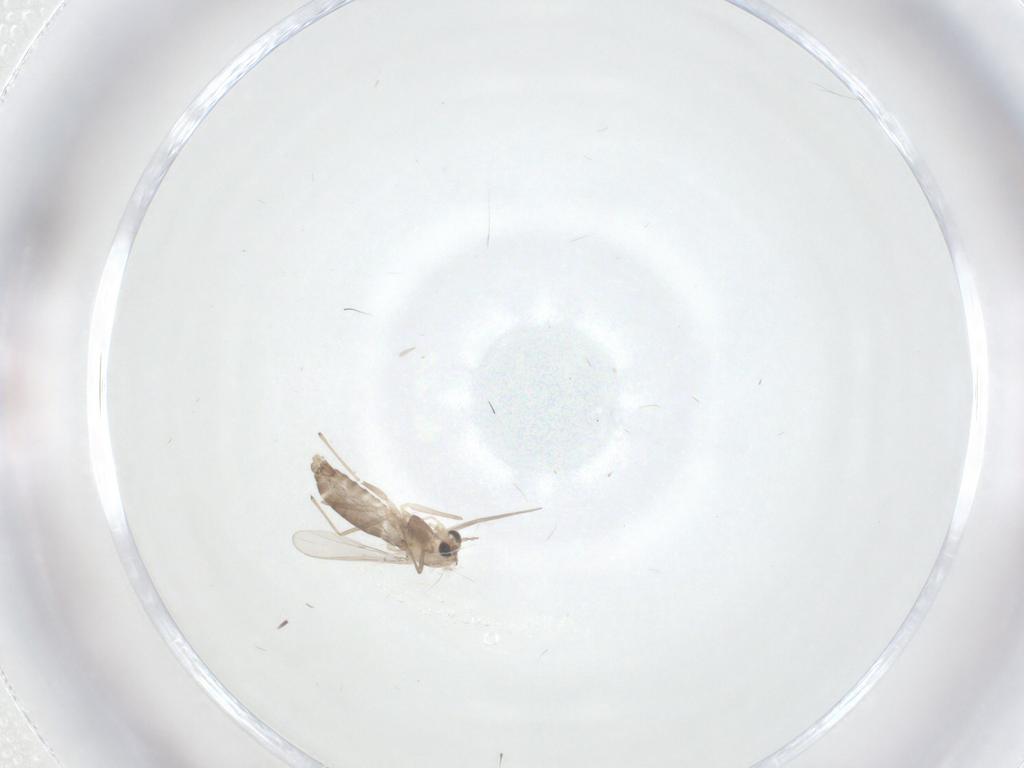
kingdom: Animalia
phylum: Arthropoda
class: Insecta
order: Diptera
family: Chironomidae
